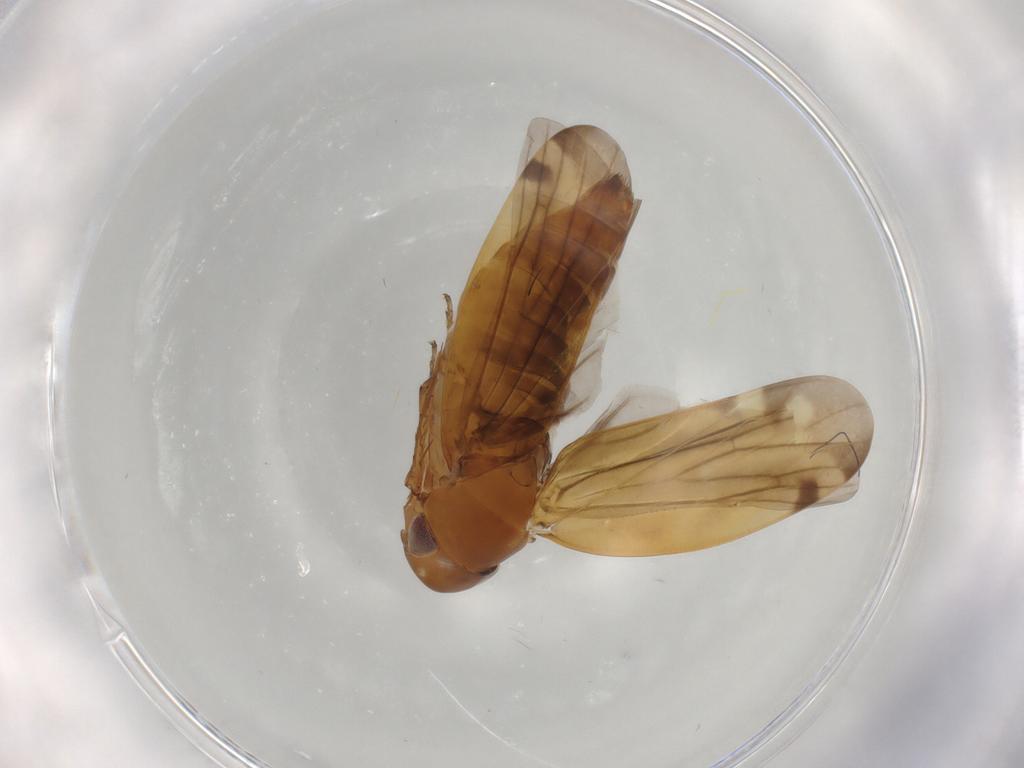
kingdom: Animalia
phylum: Arthropoda
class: Insecta
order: Hemiptera
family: Cicadellidae
